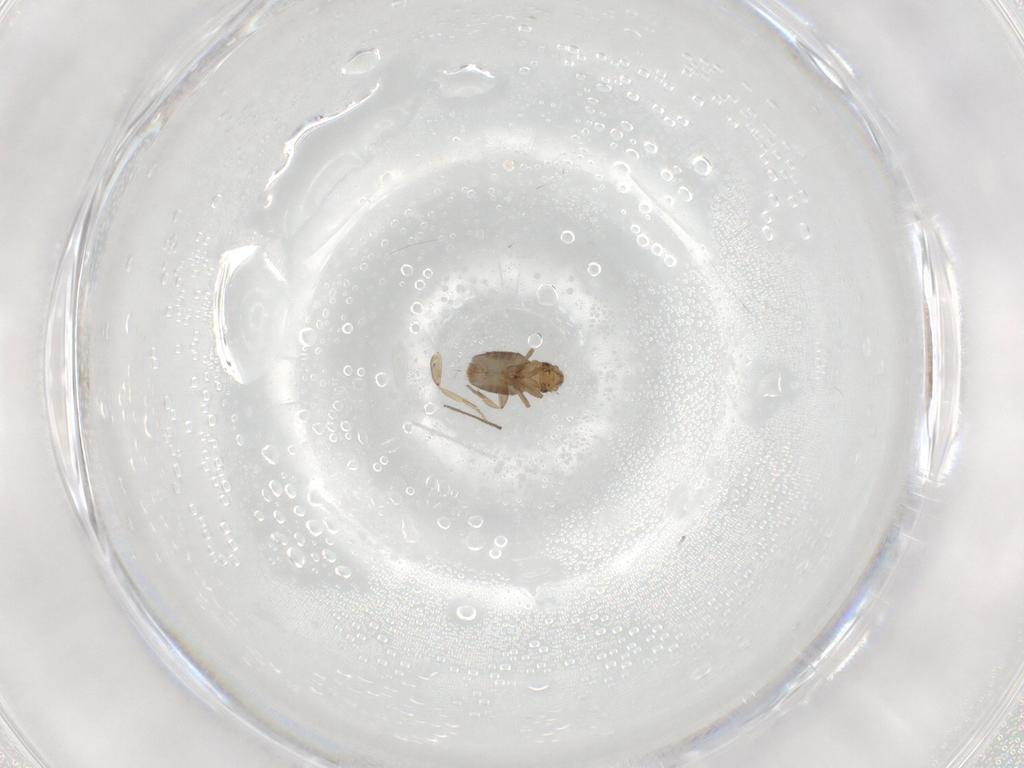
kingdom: Animalia
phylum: Arthropoda
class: Insecta
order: Diptera
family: Phoridae
